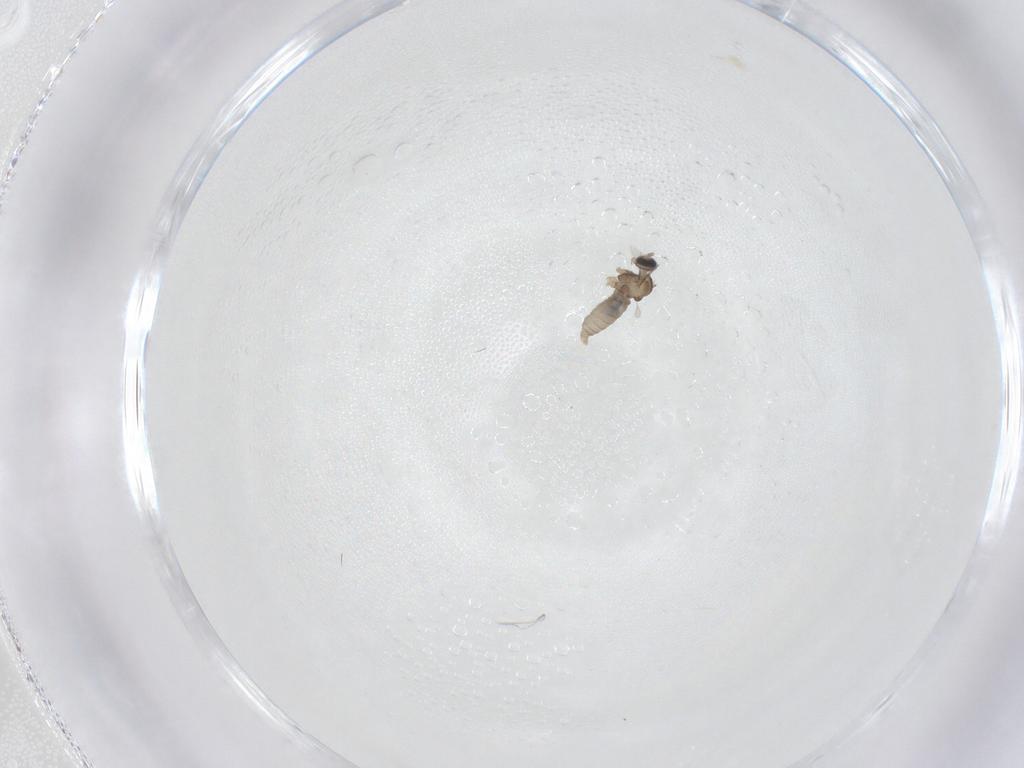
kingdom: Animalia
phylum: Arthropoda
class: Insecta
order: Diptera
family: Cecidomyiidae
